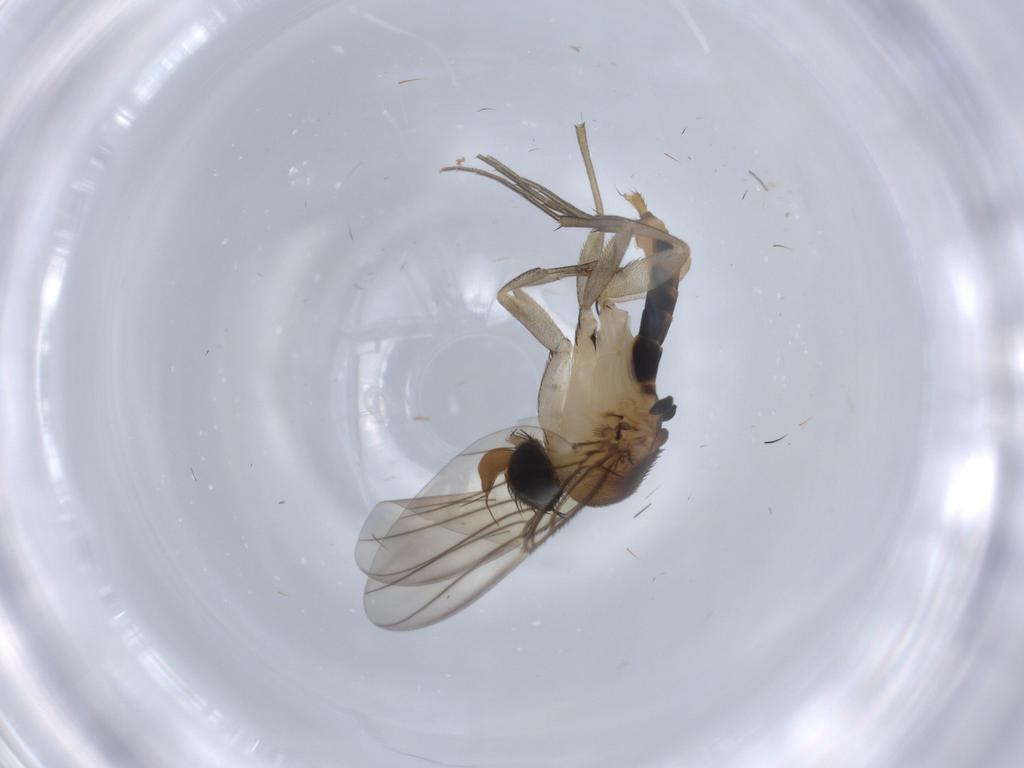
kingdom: Animalia
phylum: Arthropoda
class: Insecta
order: Diptera
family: Phoridae
